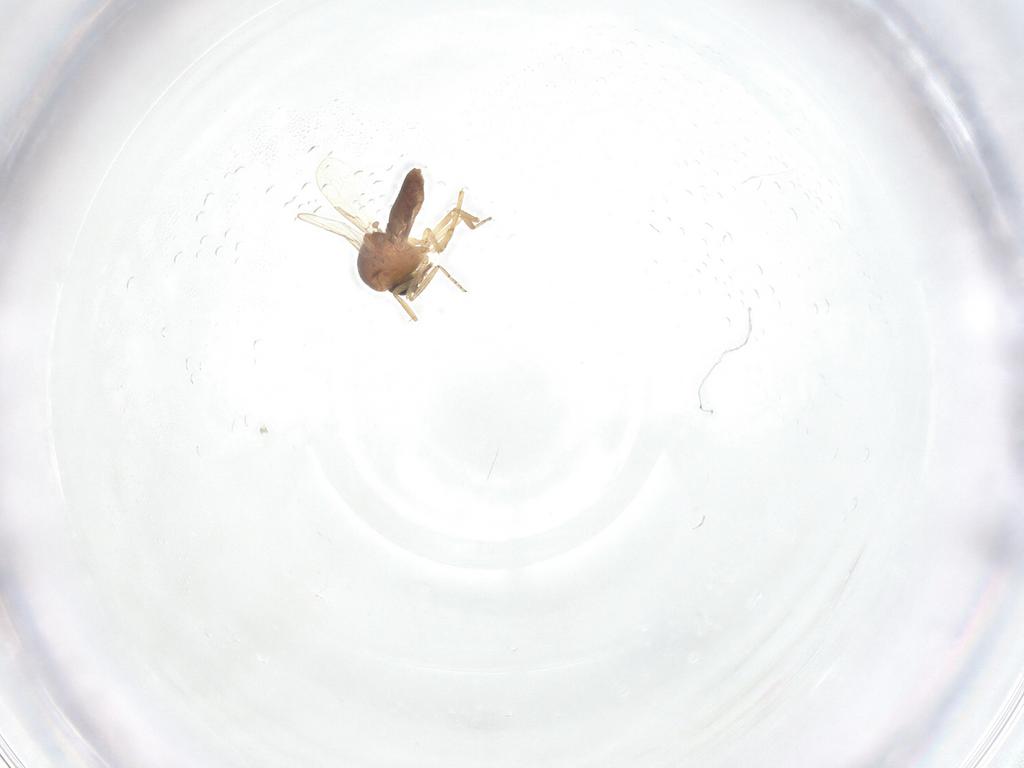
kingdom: Animalia
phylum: Arthropoda
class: Insecta
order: Diptera
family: Ceratopogonidae
